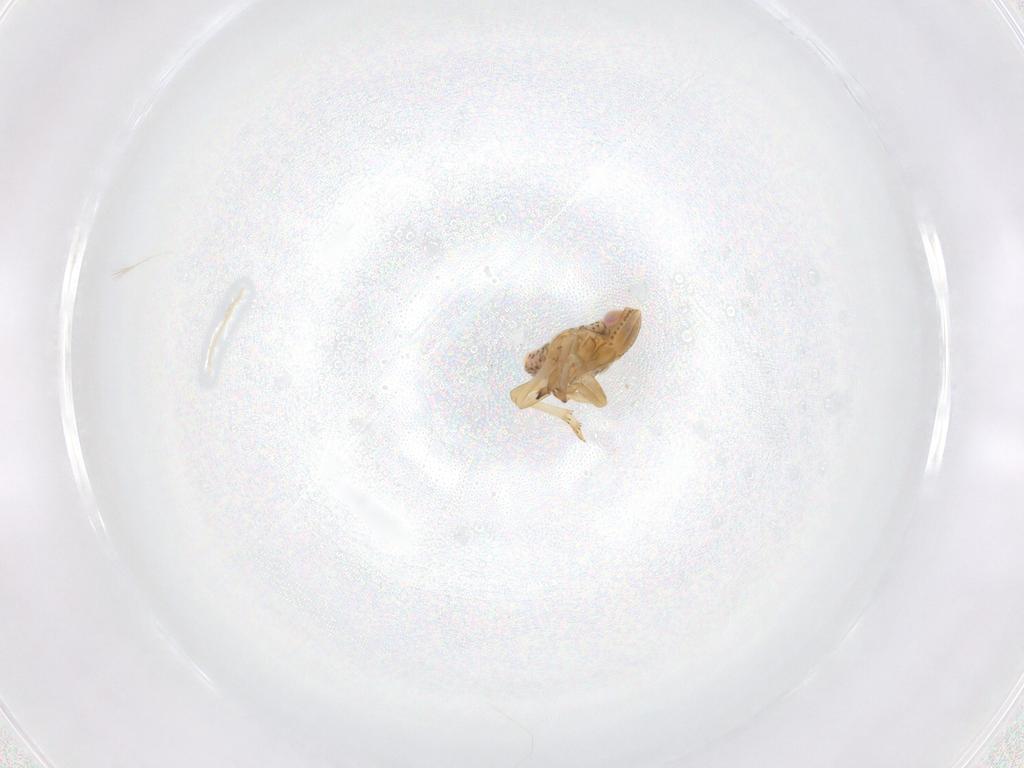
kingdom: Animalia
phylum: Arthropoda
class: Insecta
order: Hemiptera
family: Tropiduchidae
